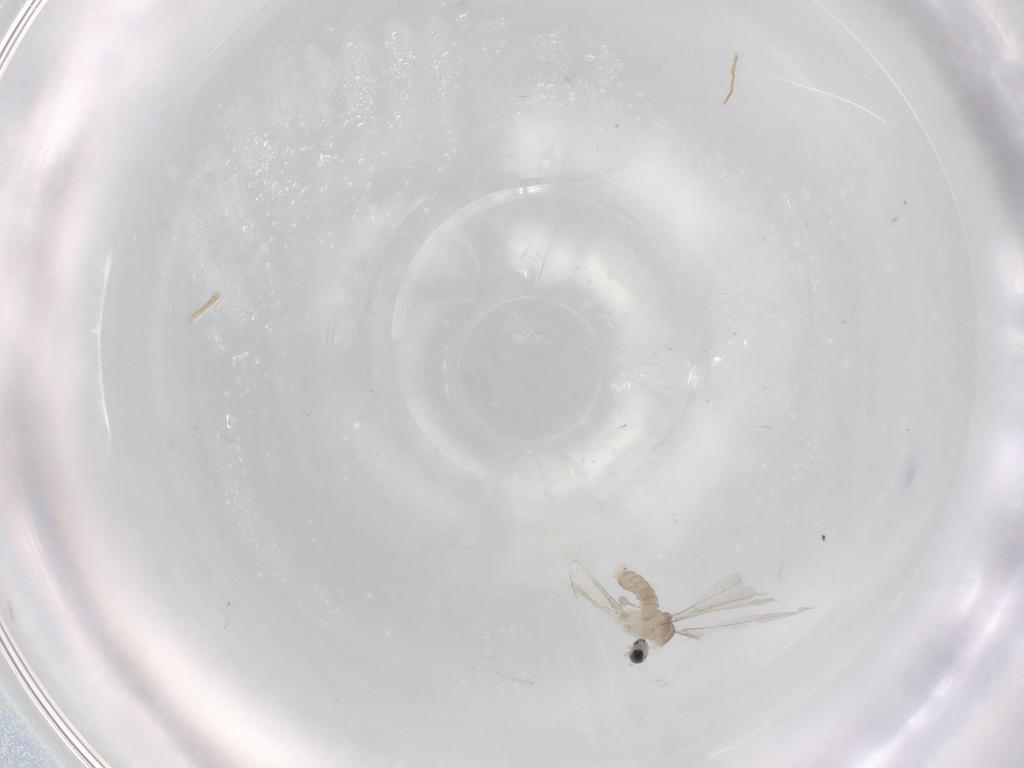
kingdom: Animalia
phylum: Arthropoda
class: Insecta
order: Diptera
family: Cecidomyiidae
